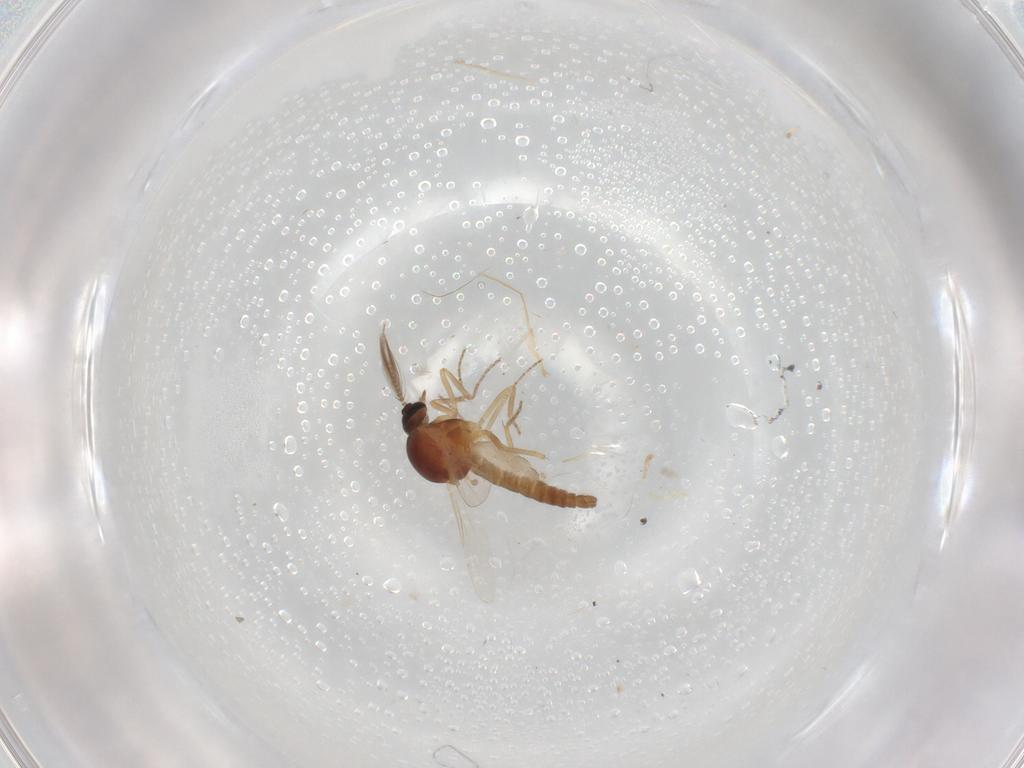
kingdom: Animalia
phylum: Arthropoda
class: Insecta
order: Diptera
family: Ceratopogonidae
